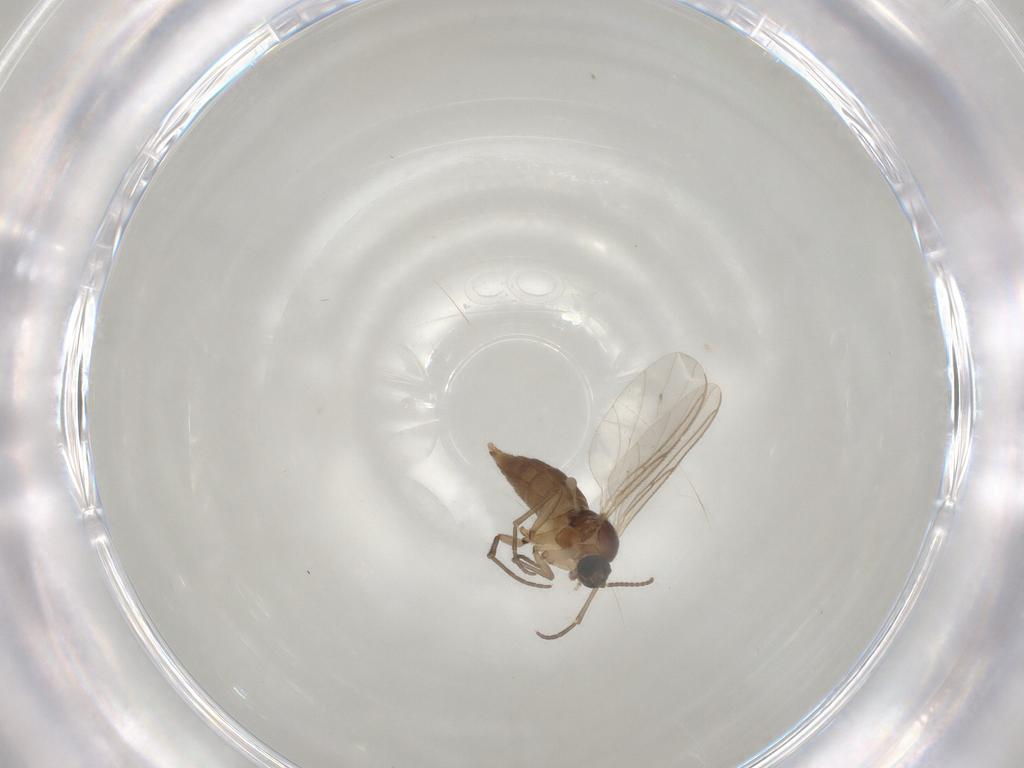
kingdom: Animalia
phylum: Arthropoda
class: Insecta
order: Diptera
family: Sciaridae
